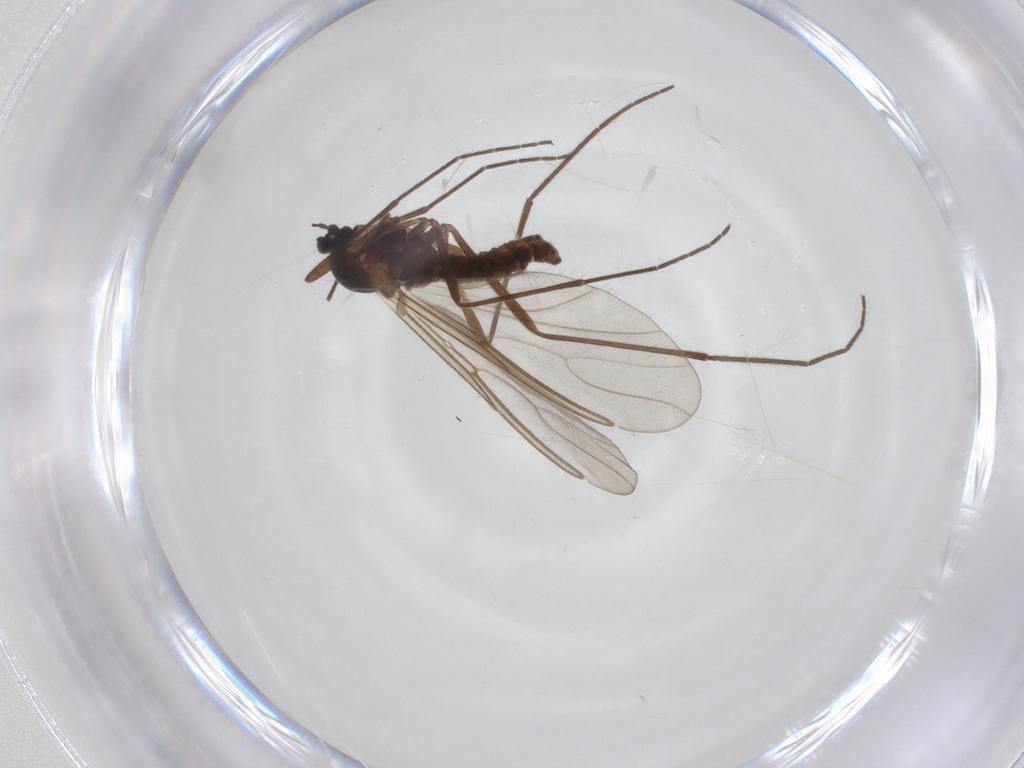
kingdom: Animalia
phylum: Arthropoda
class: Insecta
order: Diptera
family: Cecidomyiidae
